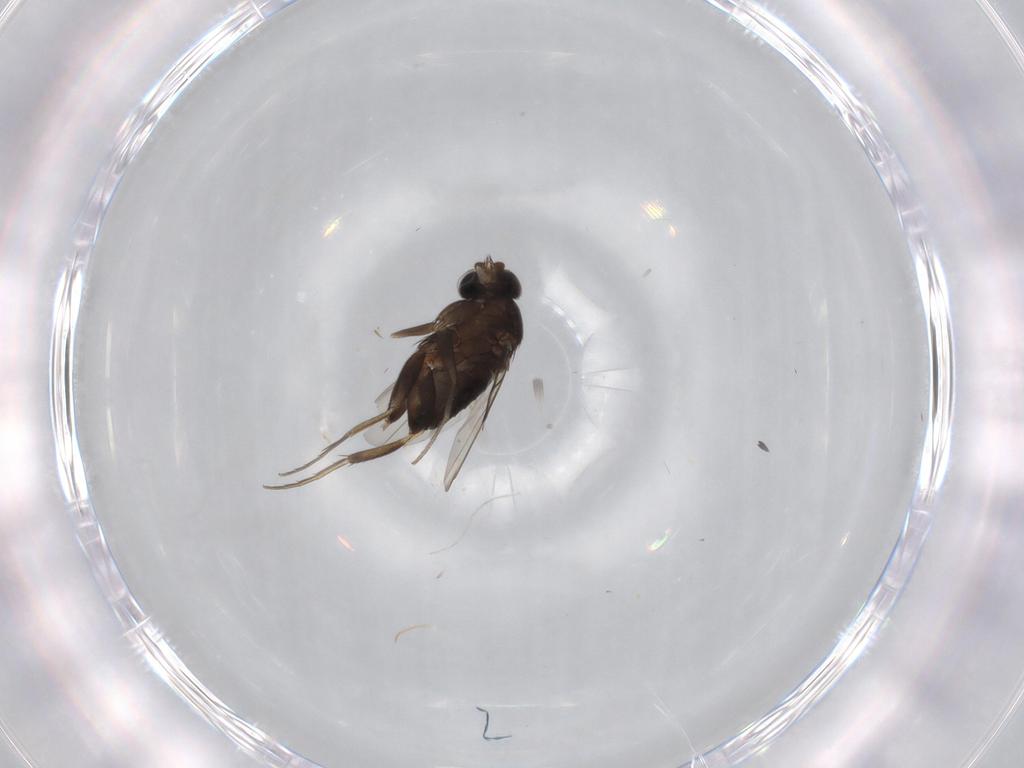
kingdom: Animalia
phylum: Arthropoda
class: Insecta
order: Diptera
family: Phoridae
